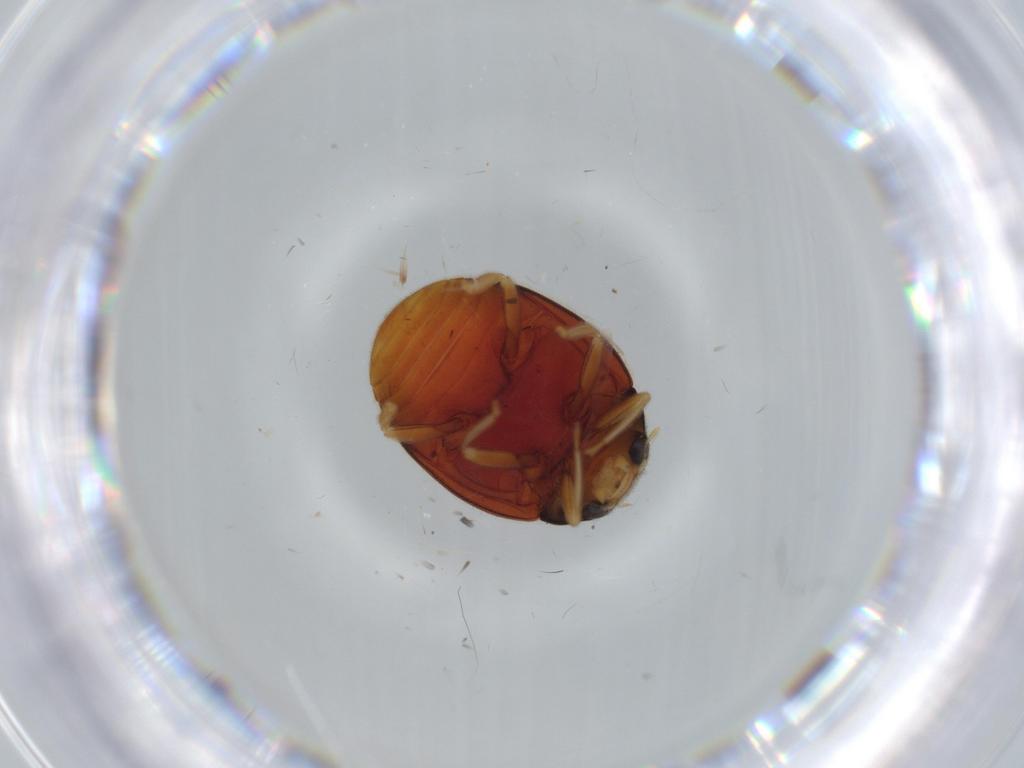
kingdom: Animalia
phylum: Arthropoda
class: Insecta
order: Coleoptera
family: Coccinellidae
